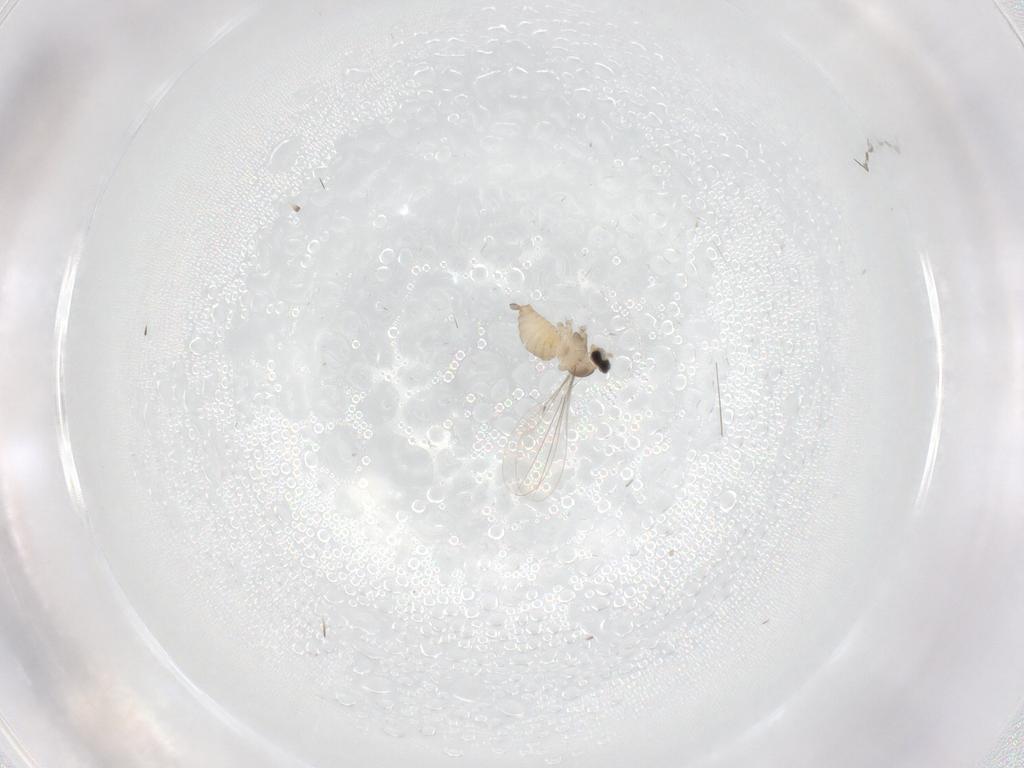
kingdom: Animalia
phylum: Arthropoda
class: Insecta
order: Diptera
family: Cecidomyiidae
